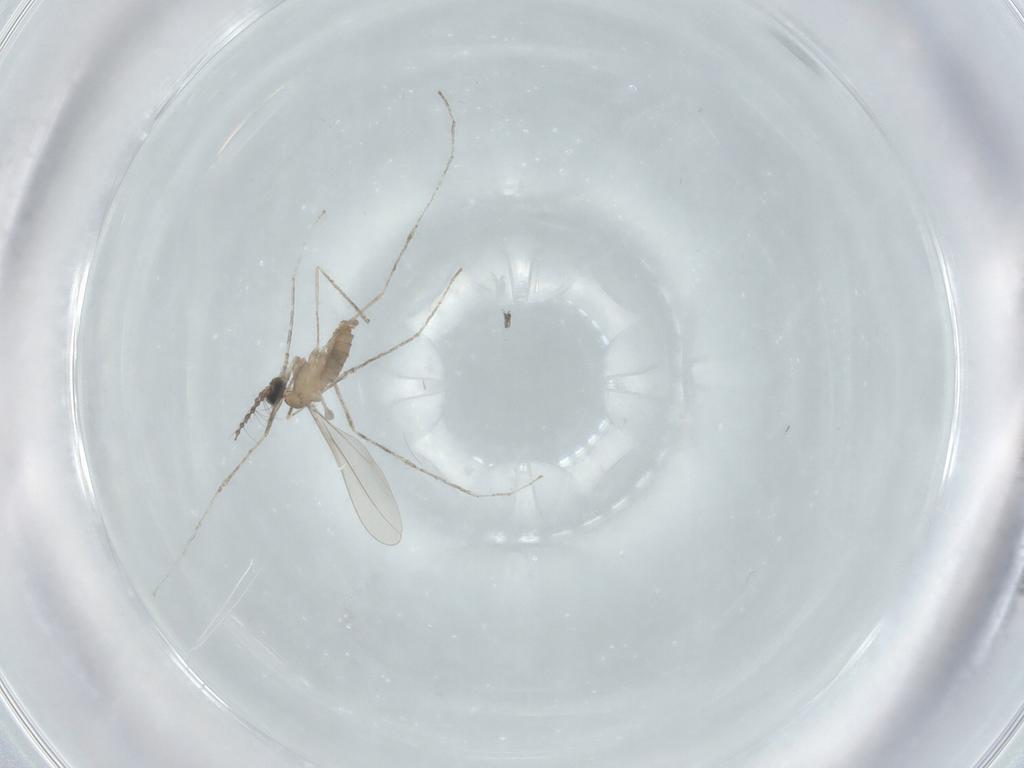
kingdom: Animalia
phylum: Arthropoda
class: Insecta
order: Diptera
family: Cecidomyiidae
